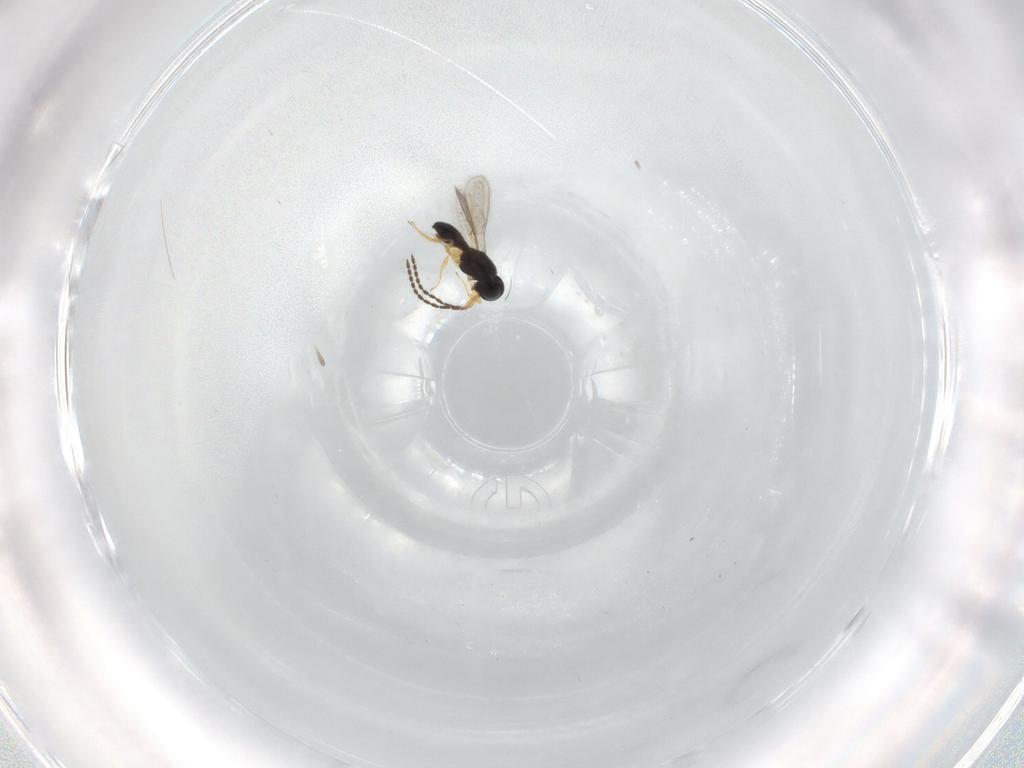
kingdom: Animalia
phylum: Arthropoda
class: Insecta
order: Hymenoptera
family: Scelionidae
